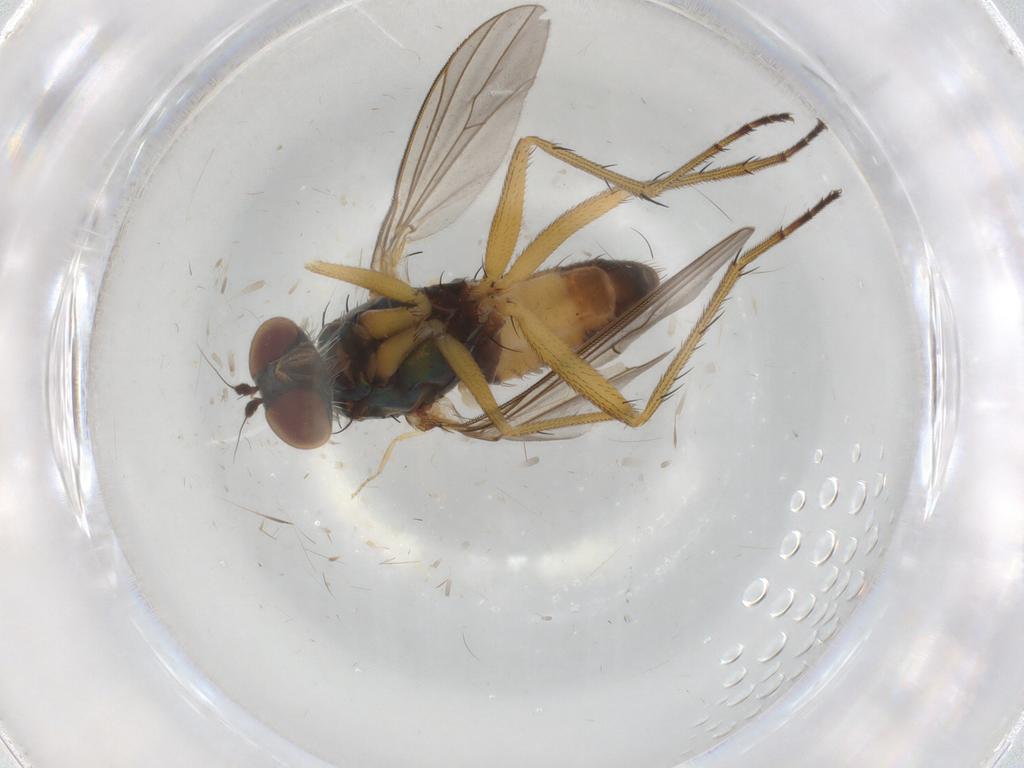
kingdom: Animalia
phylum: Arthropoda
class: Insecta
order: Diptera
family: Ceratopogonidae
